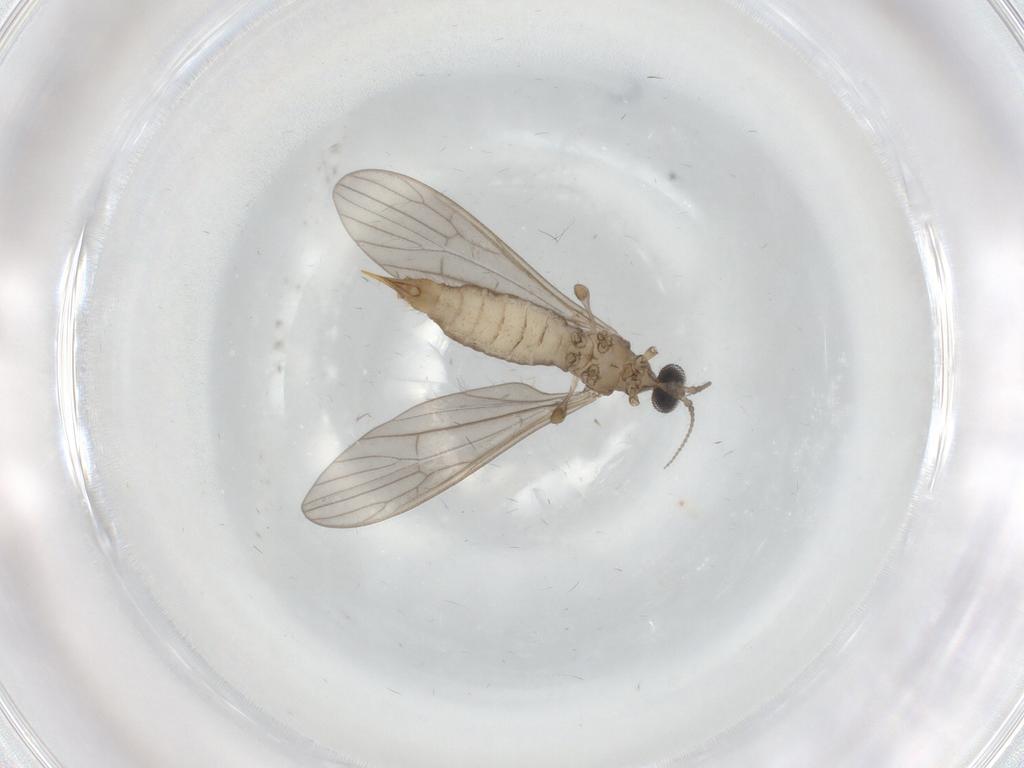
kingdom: Animalia
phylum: Arthropoda
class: Insecta
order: Diptera
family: Limoniidae
